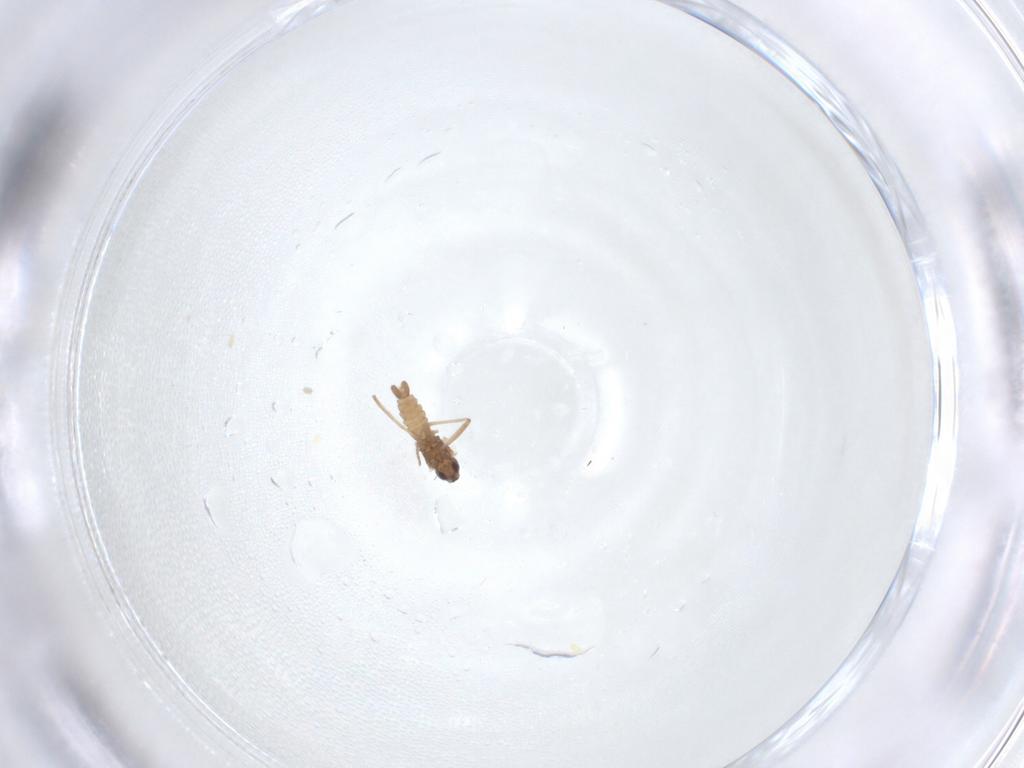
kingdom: Animalia
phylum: Arthropoda
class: Insecta
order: Diptera
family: Cecidomyiidae
